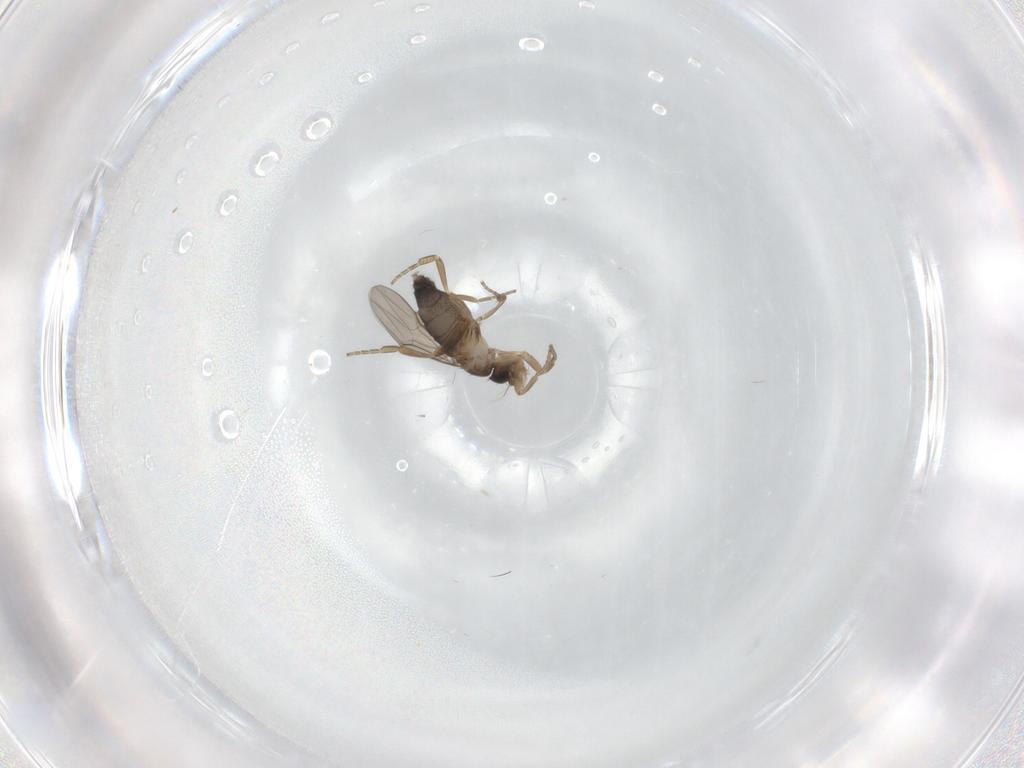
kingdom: Animalia
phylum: Arthropoda
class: Insecta
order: Diptera
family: Phoridae
